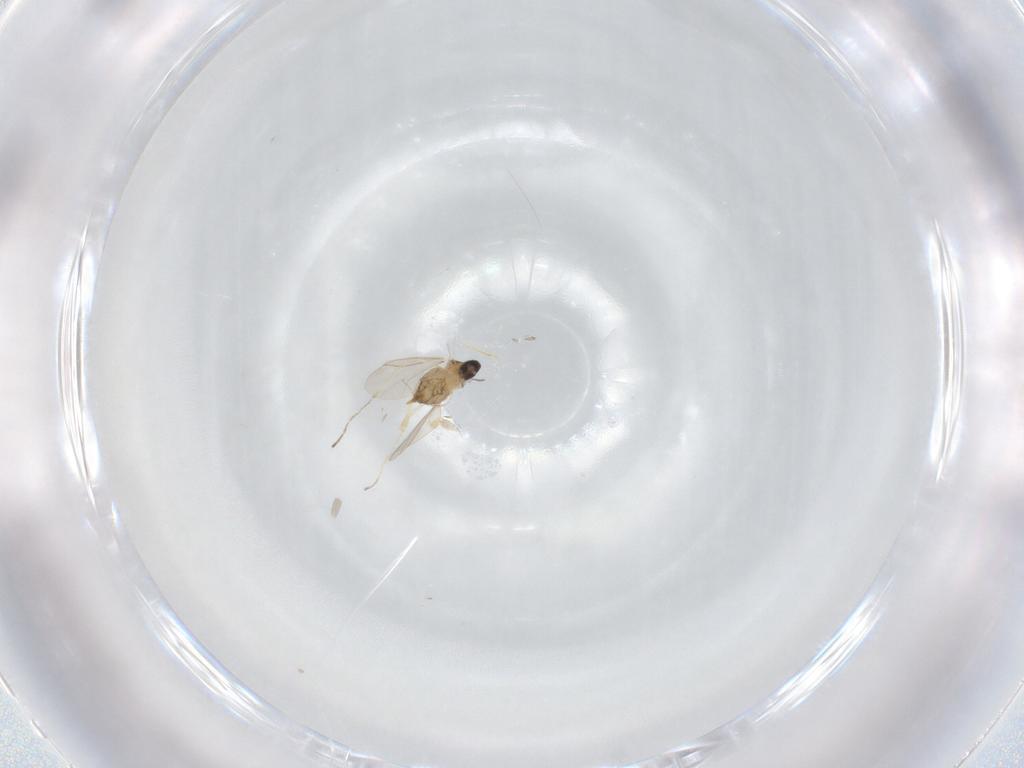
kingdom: Animalia
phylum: Arthropoda
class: Insecta
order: Diptera
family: Cecidomyiidae
